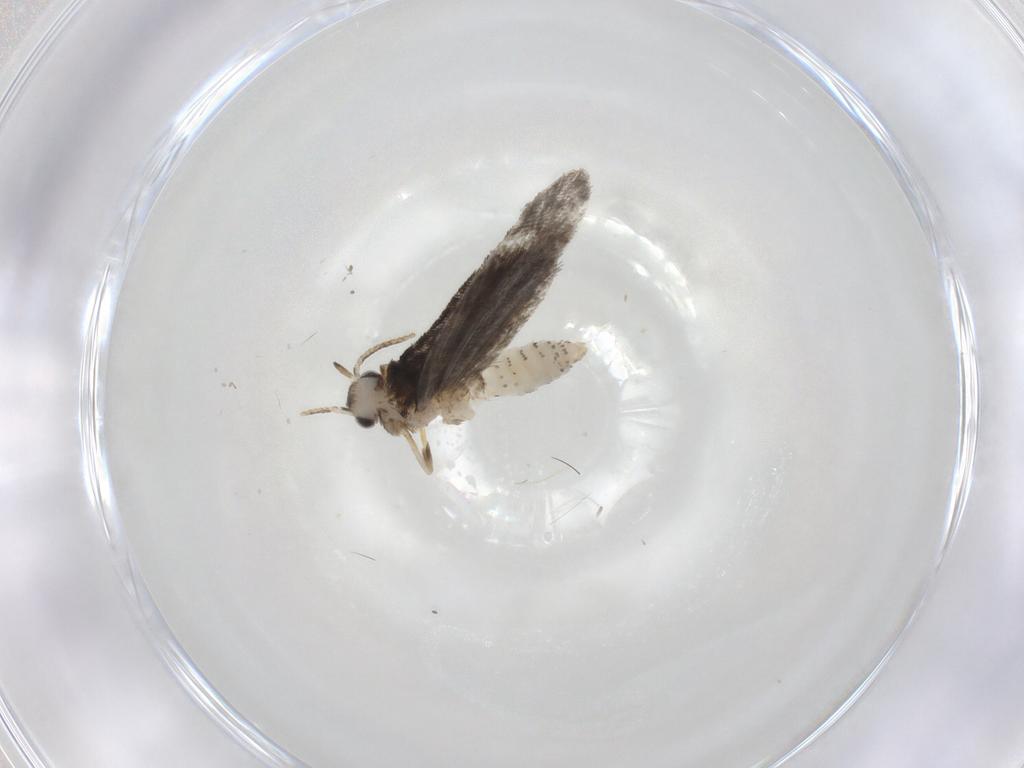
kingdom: Animalia
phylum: Arthropoda
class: Insecta
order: Lepidoptera
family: Psychidae
